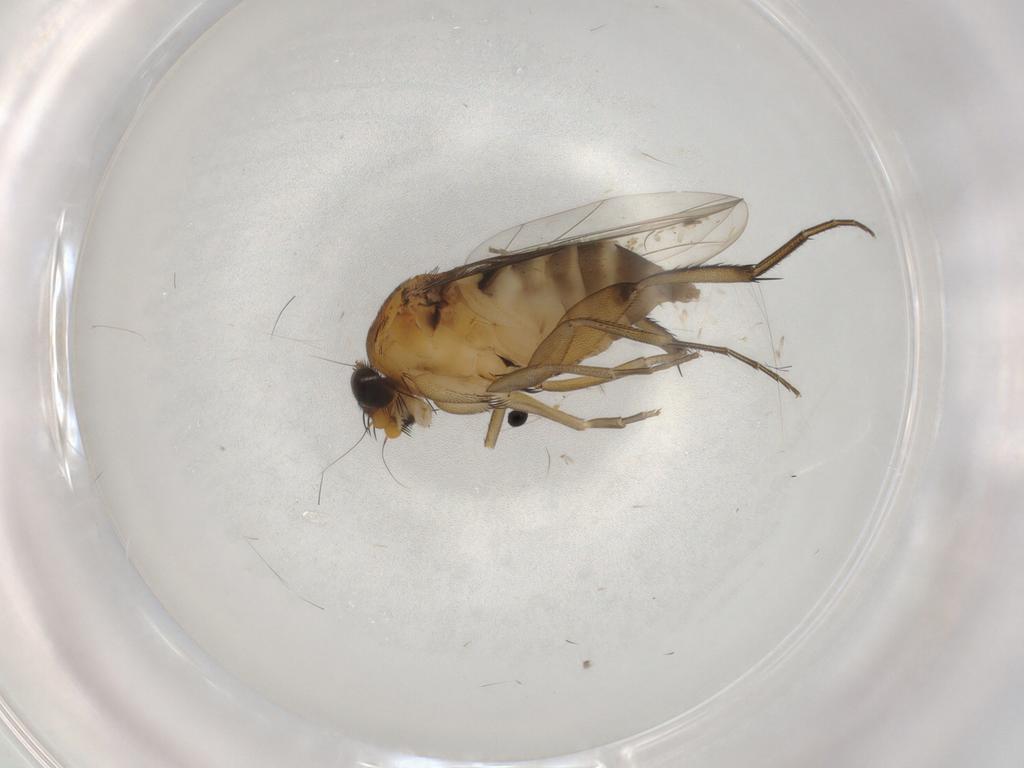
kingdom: Animalia
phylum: Arthropoda
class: Insecta
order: Diptera
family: Phoridae
